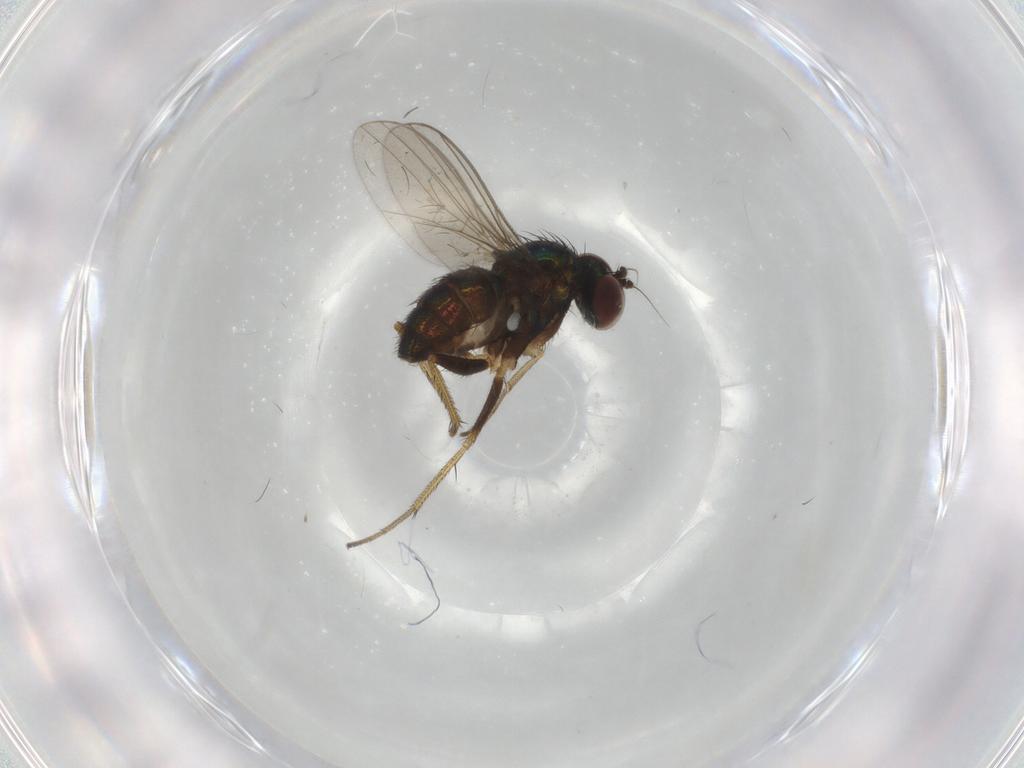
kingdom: Animalia
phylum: Arthropoda
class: Insecta
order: Diptera
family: Cecidomyiidae
